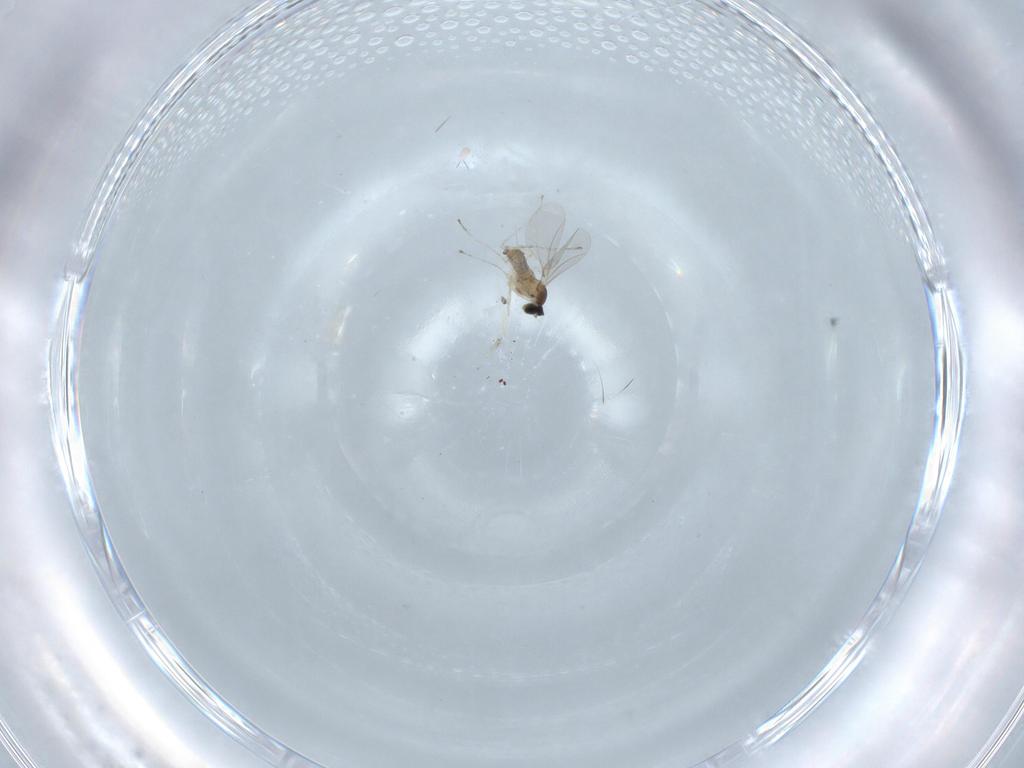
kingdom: Animalia
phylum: Arthropoda
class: Insecta
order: Diptera
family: Cecidomyiidae
